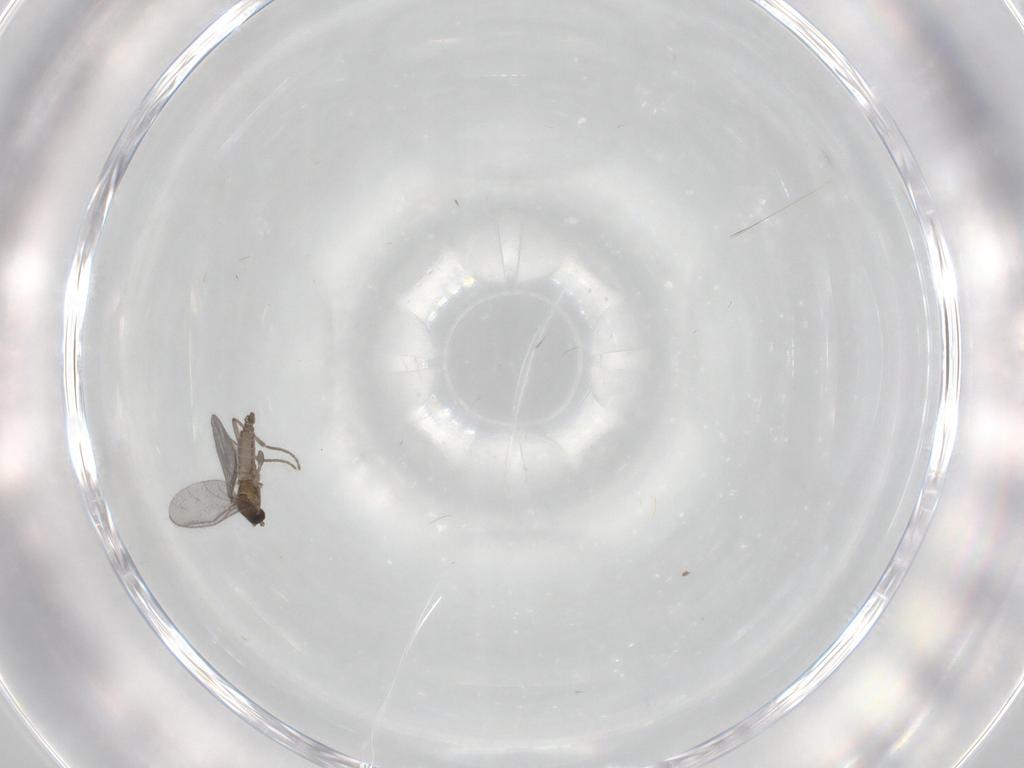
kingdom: Animalia
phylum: Arthropoda
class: Insecta
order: Diptera
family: Sciaridae
